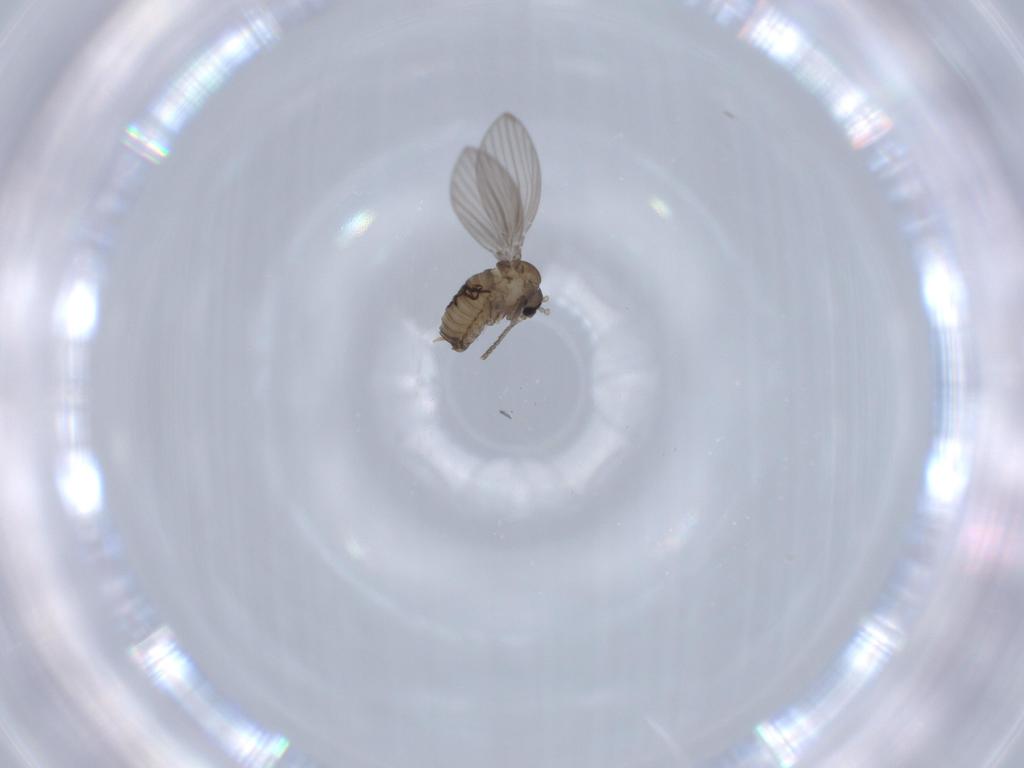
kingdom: Animalia
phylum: Arthropoda
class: Insecta
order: Diptera
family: Psychodidae
